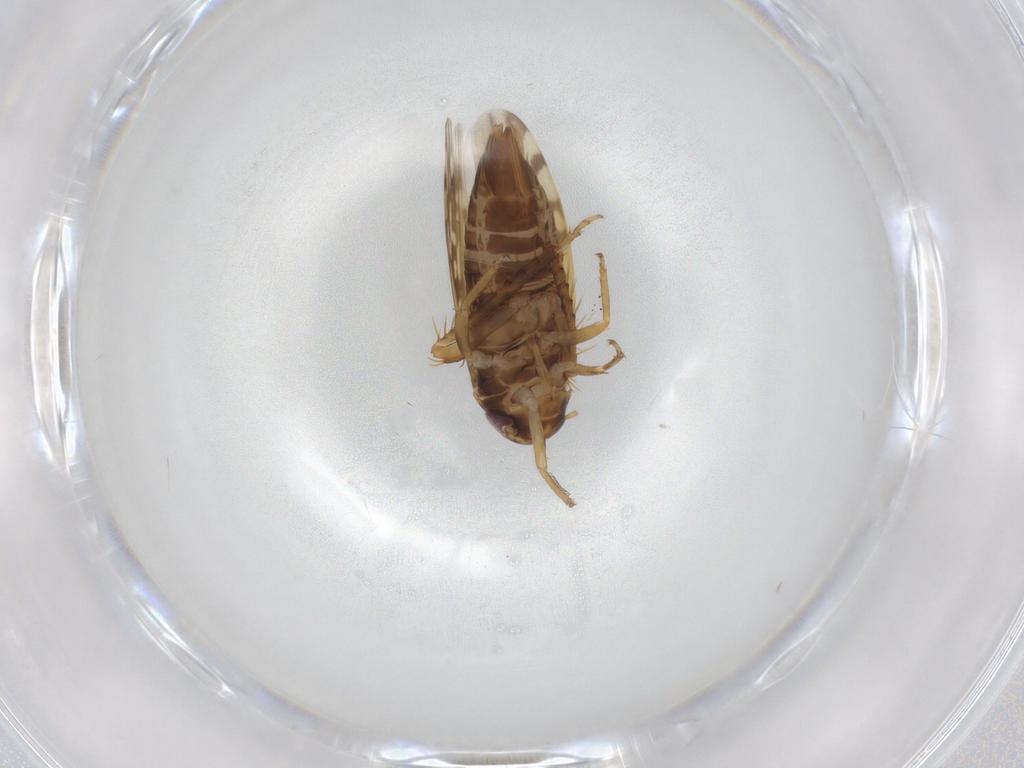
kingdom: Animalia
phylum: Arthropoda
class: Insecta
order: Hemiptera
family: Cicadellidae
